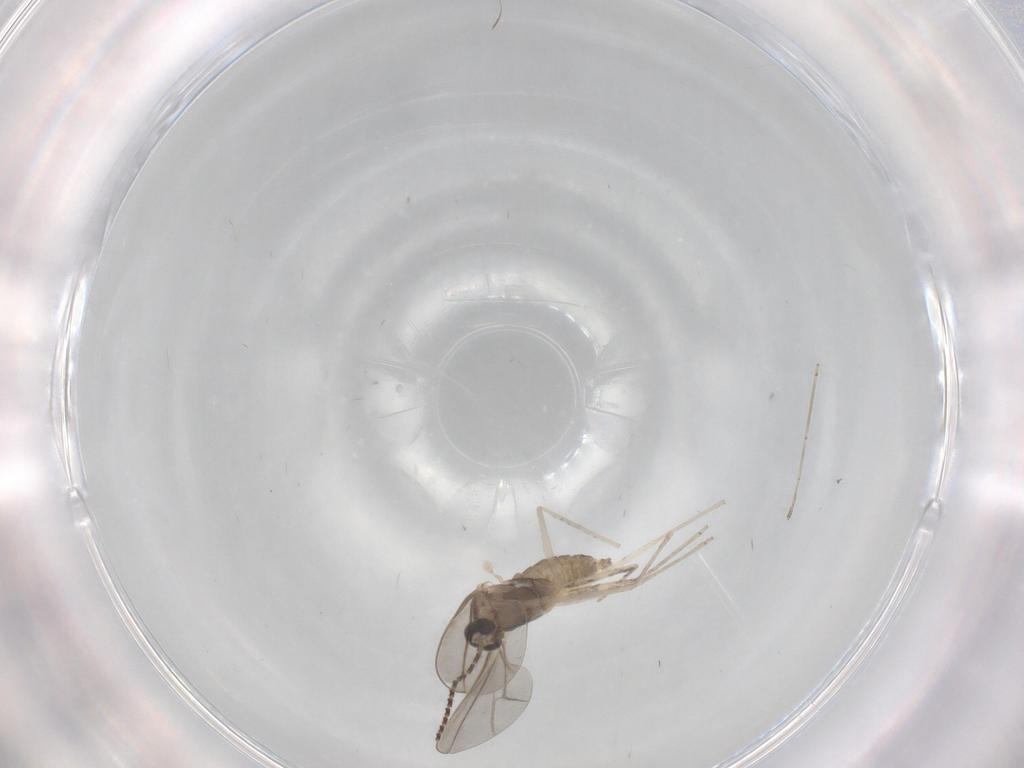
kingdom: Animalia
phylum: Arthropoda
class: Insecta
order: Diptera
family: Cecidomyiidae
